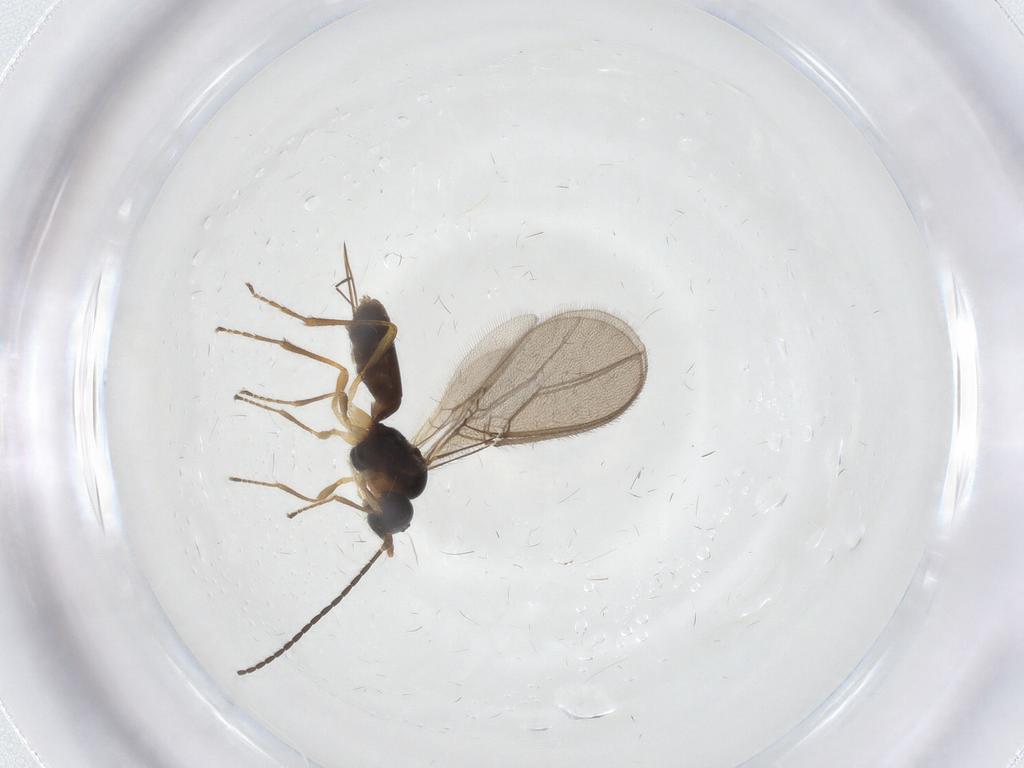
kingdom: Animalia
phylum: Arthropoda
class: Insecta
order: Hymenoptera
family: Braconidae
